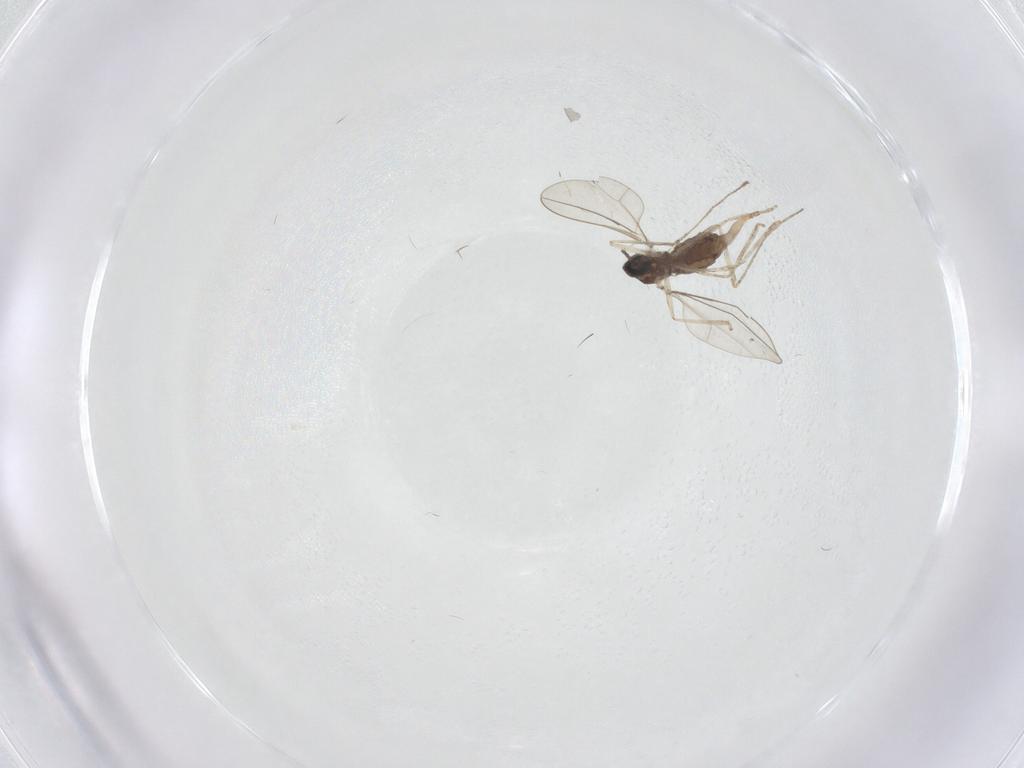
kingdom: Animalia
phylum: Arthropoda
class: Insecta
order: Diptera
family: Cecidomyiidae
